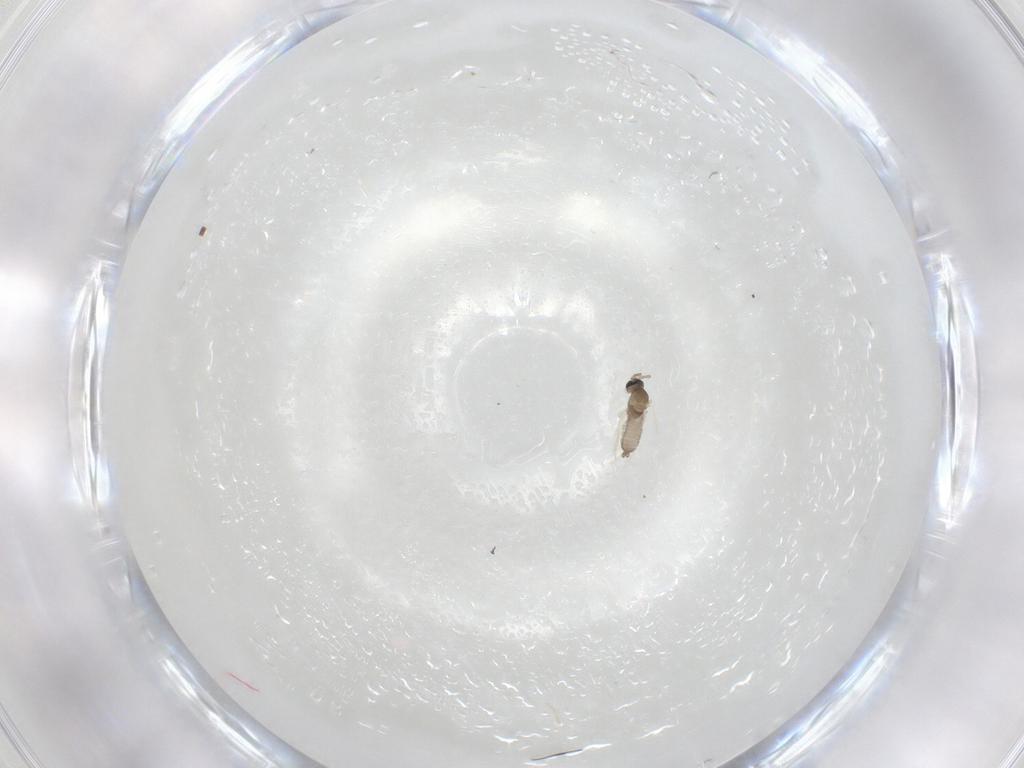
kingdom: Animalia
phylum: Arthropoda
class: Insecta
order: Diptera
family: Cecidomyiidae
